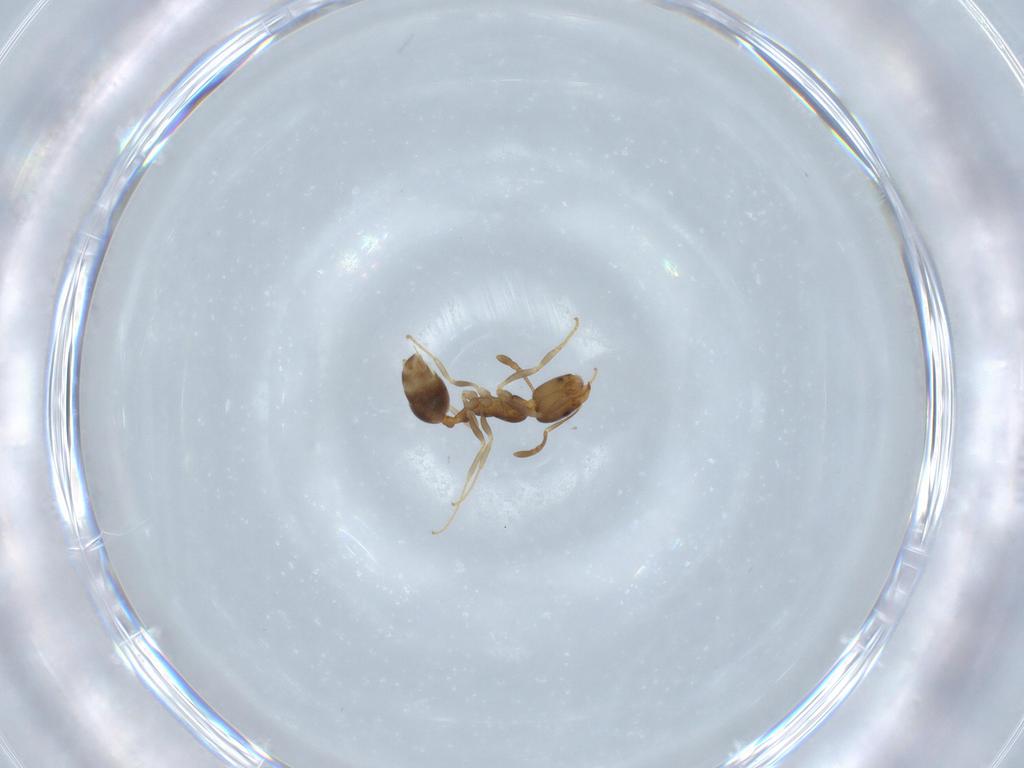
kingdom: Animalia
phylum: Arthropoda
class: Insecta
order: Hymenoptera
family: Formicidae
